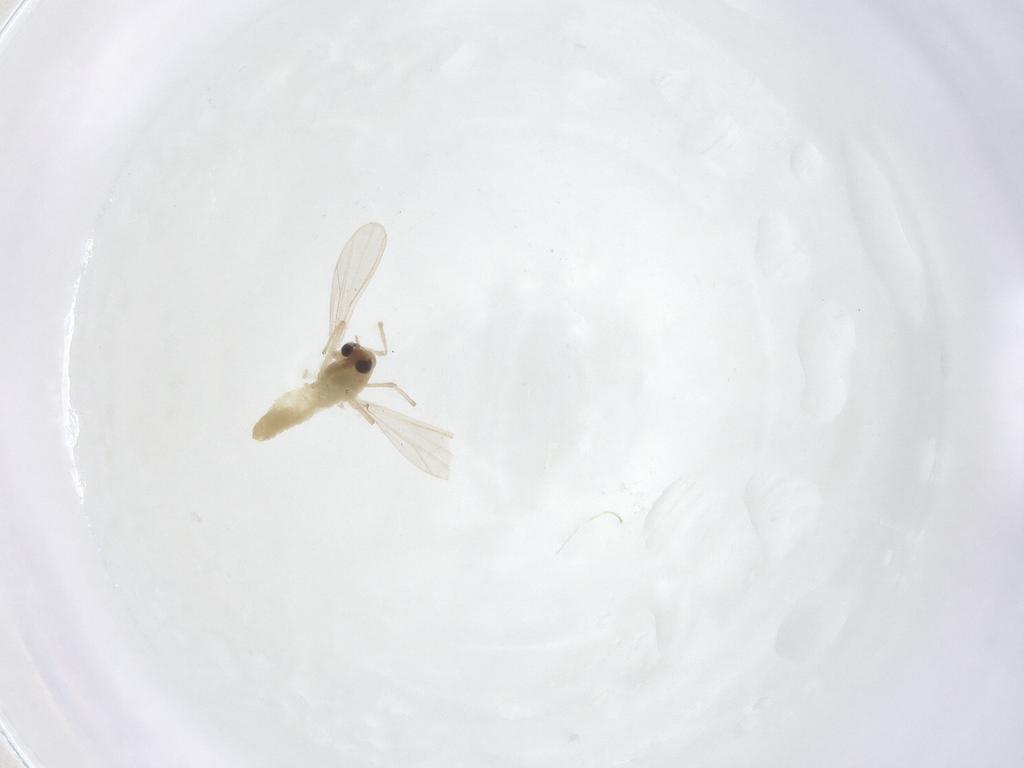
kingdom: Animalia
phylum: Arthropoda
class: Insecta
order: Diptera
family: Chironomidae
